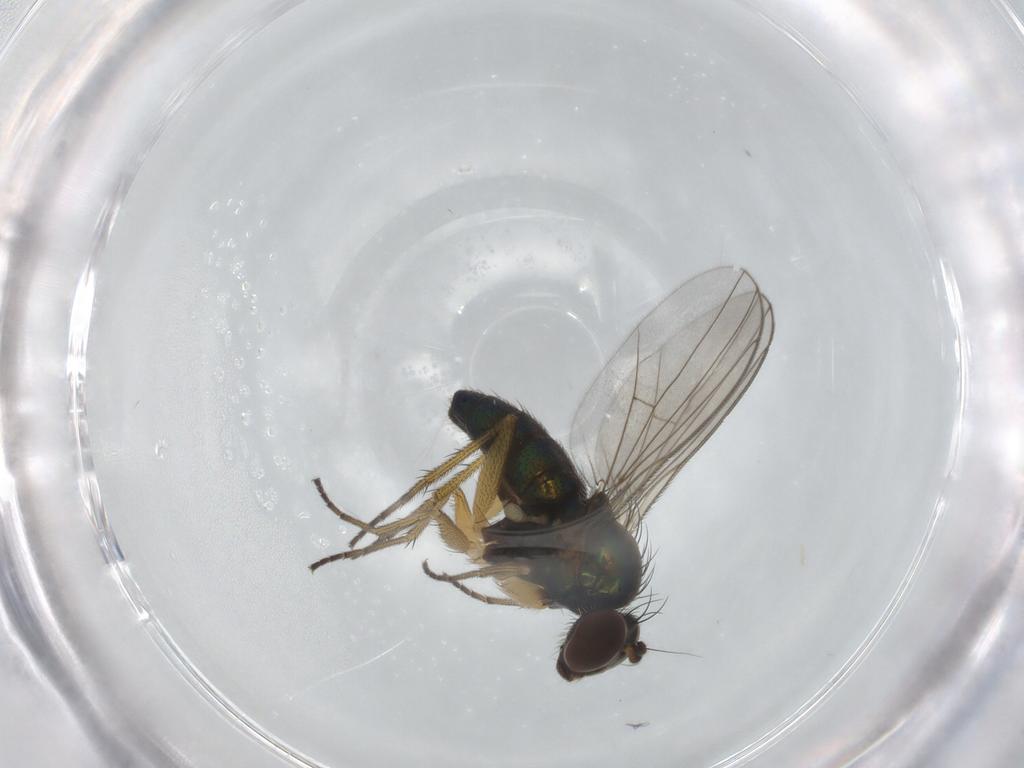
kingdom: Animalia
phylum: Arthropoda
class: Insecta
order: Diptera
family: Dolichopodidae
